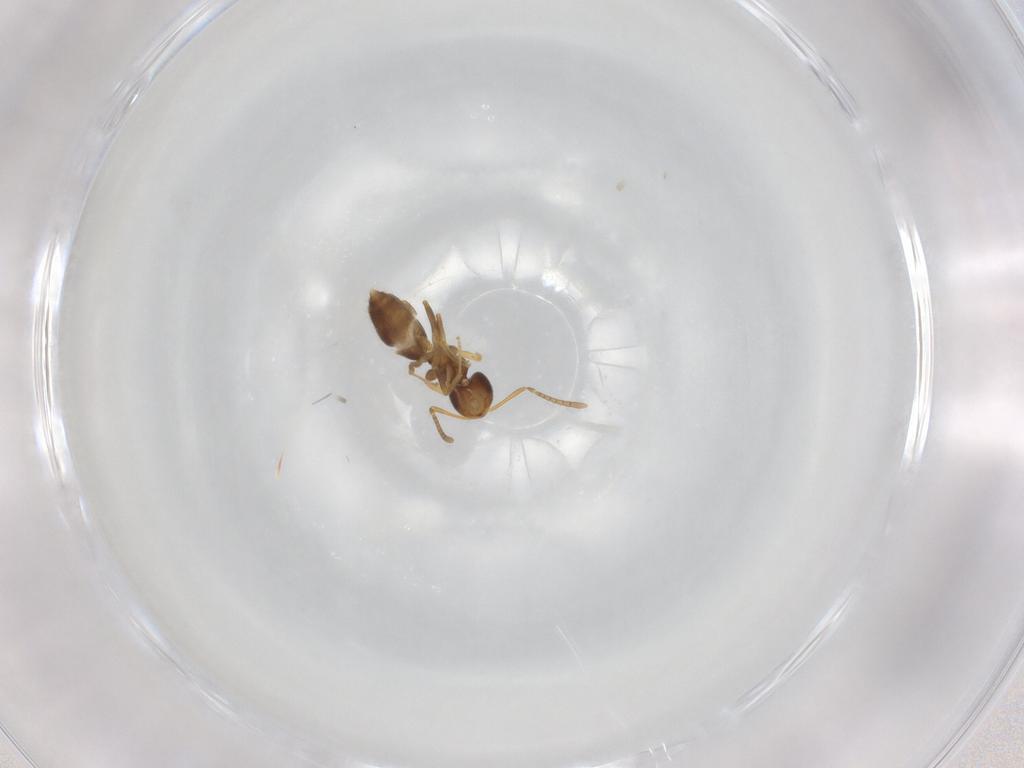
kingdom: Animalia
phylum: Arthropoda
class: Insecta
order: Hymenoptera
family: Formicidae
